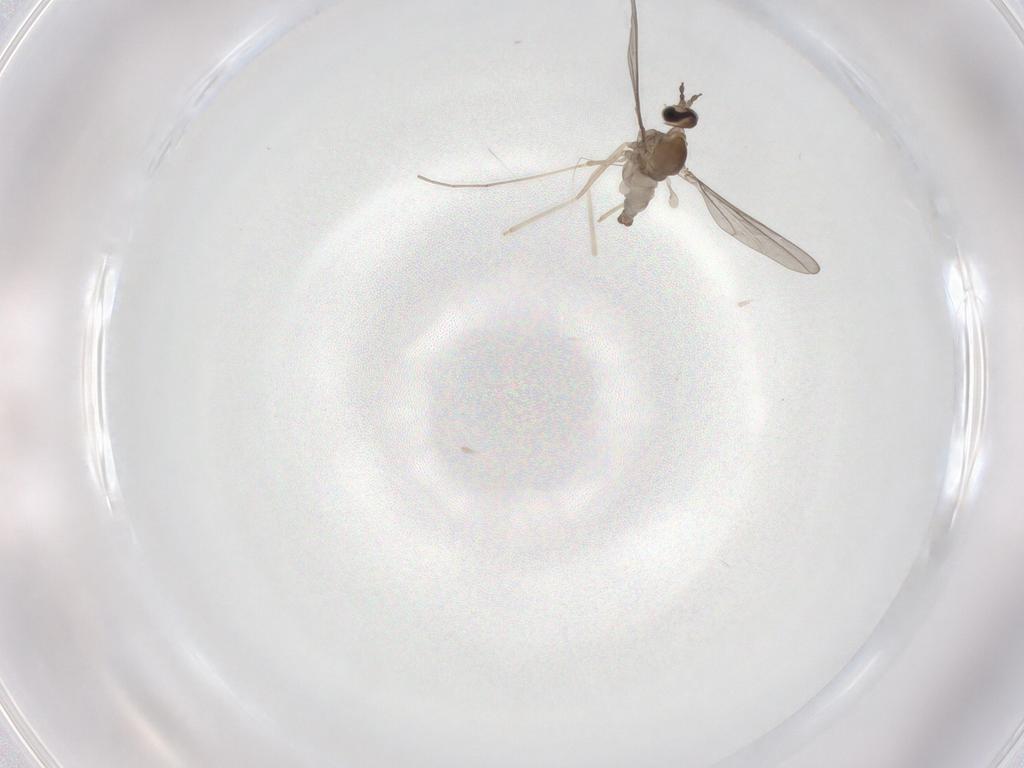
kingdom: Animalia
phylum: Arthropoda
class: Insecta
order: Diptera
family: Cecidomyiidae
